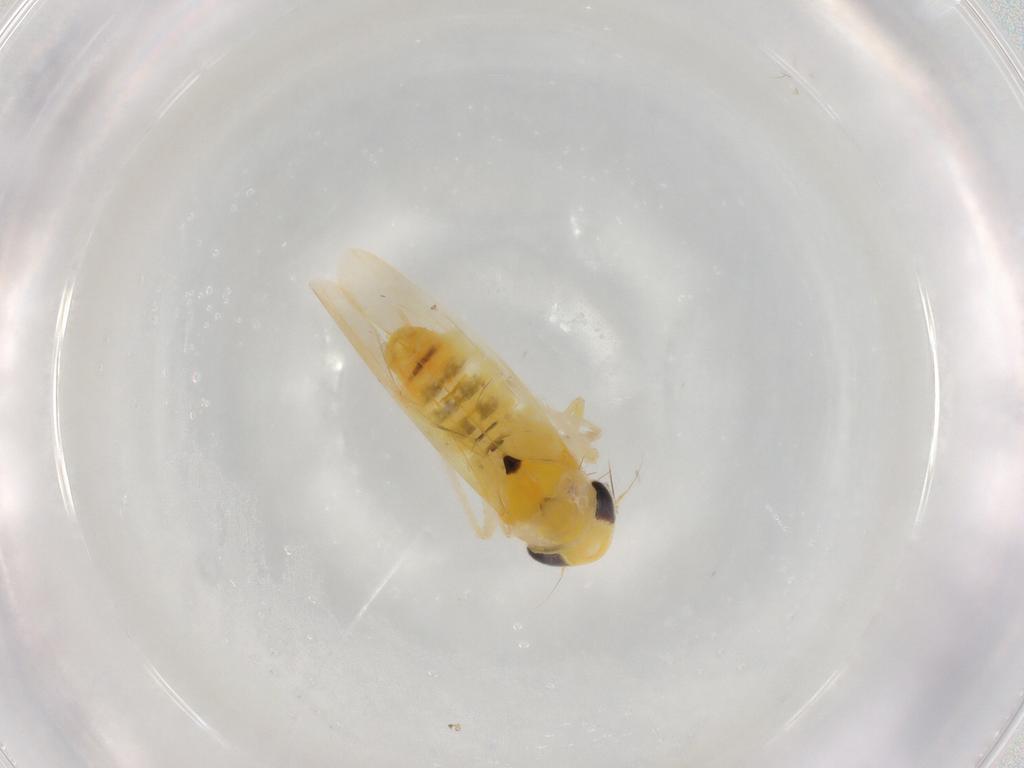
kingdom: Animalia
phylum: Arthropoda
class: Insecta
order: Hemiptera
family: Cicadellidae
